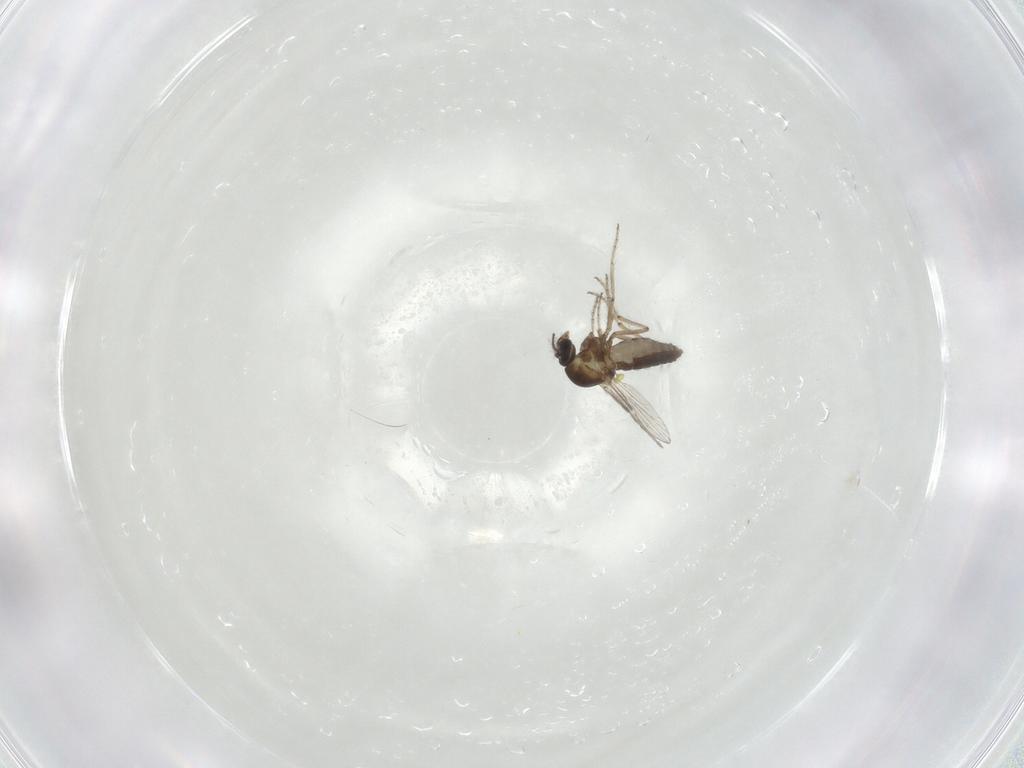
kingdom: Animalia
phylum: Arthropoda
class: Insecta
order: Diptera
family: Ceratopogonidae
